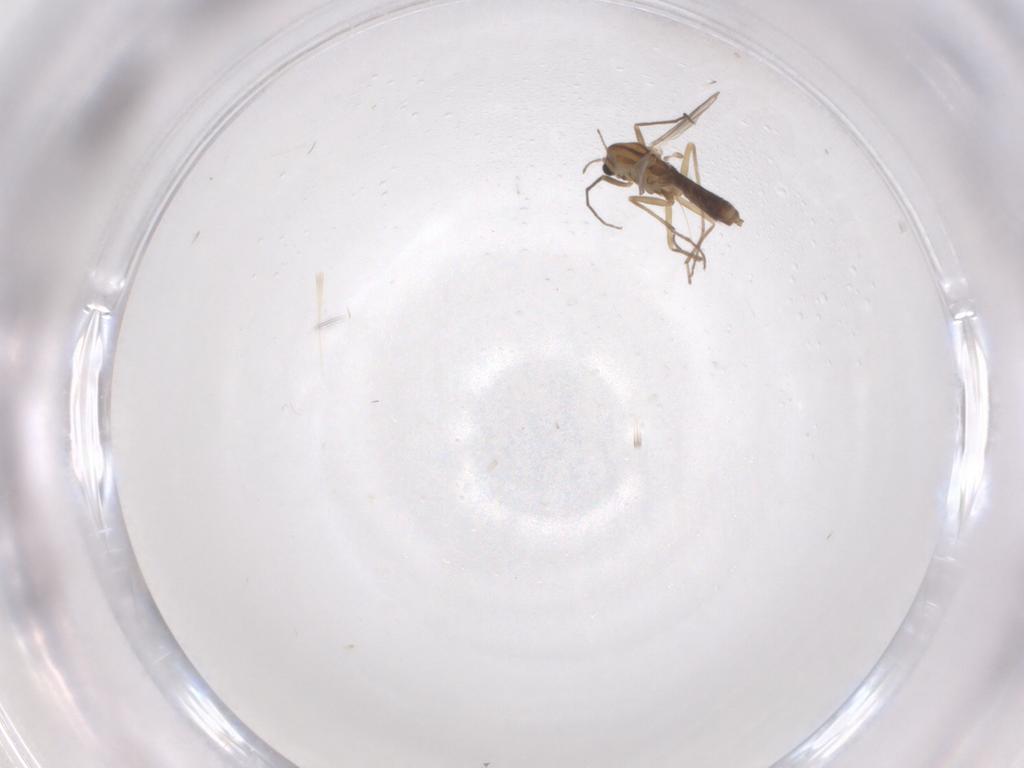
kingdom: Animalia
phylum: Arthropoda
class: Insecta
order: Diptera
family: Chironomidae
